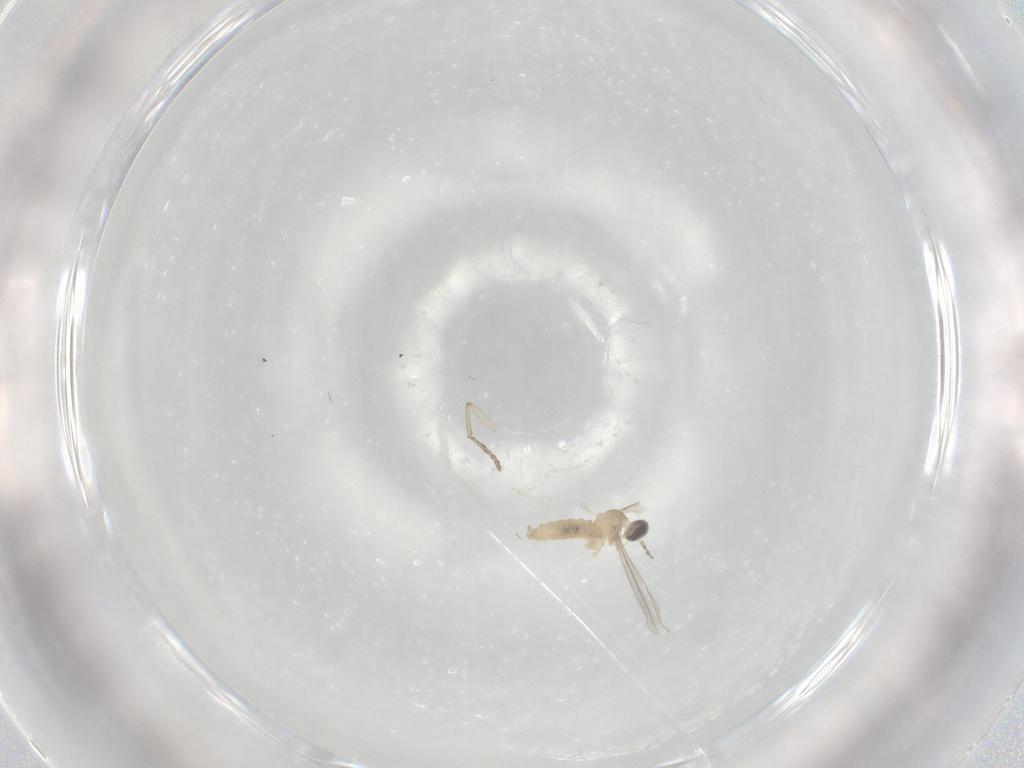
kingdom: Animalia
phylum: Arthropoda
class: Insecta
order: Diptera
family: Cecidomyiidae
